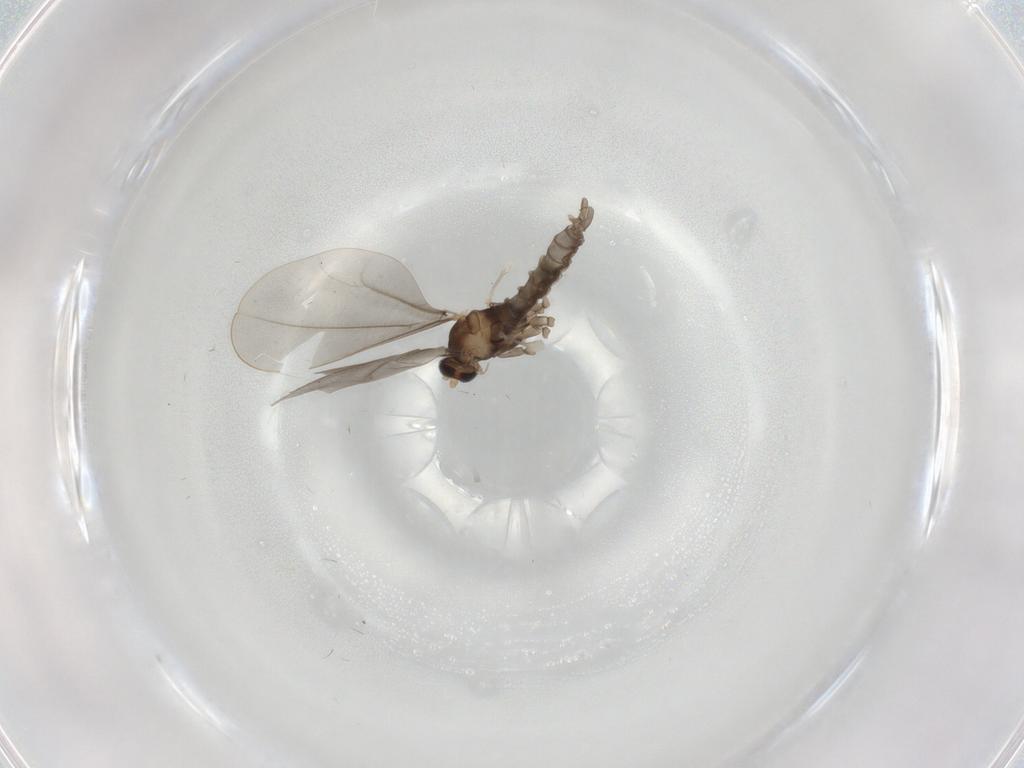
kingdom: Animalia
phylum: Arthropoda
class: Insecta
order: Diptera
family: Cecidomyiidae
